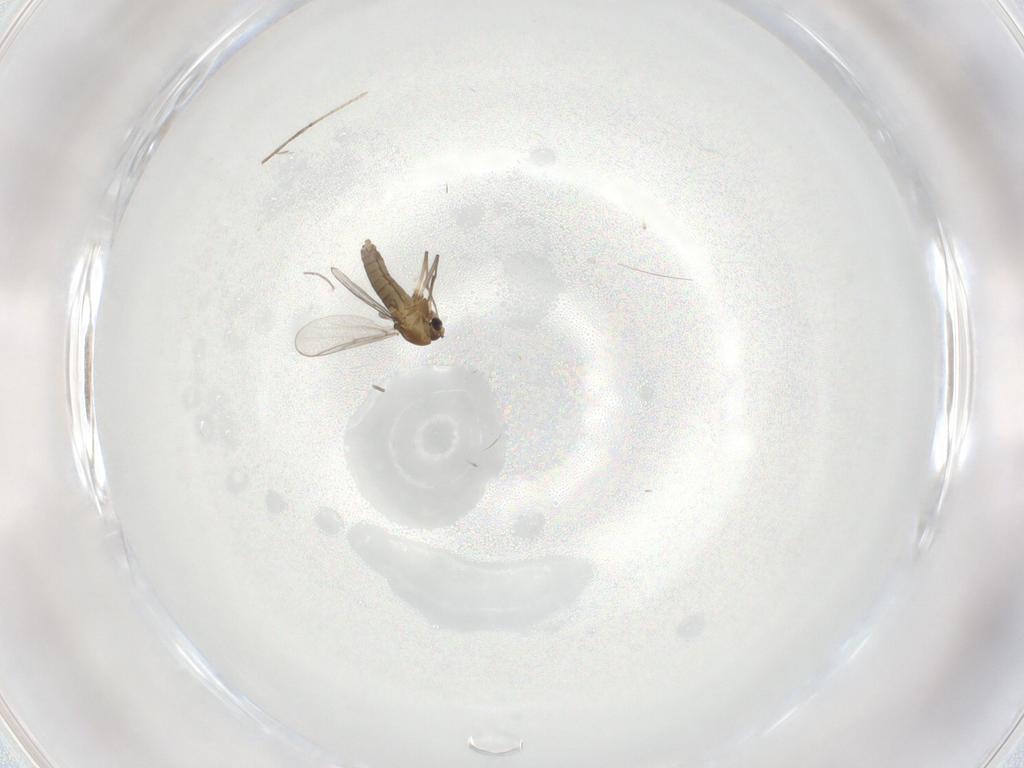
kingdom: Animalia
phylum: Arthropoda
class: Insecta
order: Diptera
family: Chironomidae
